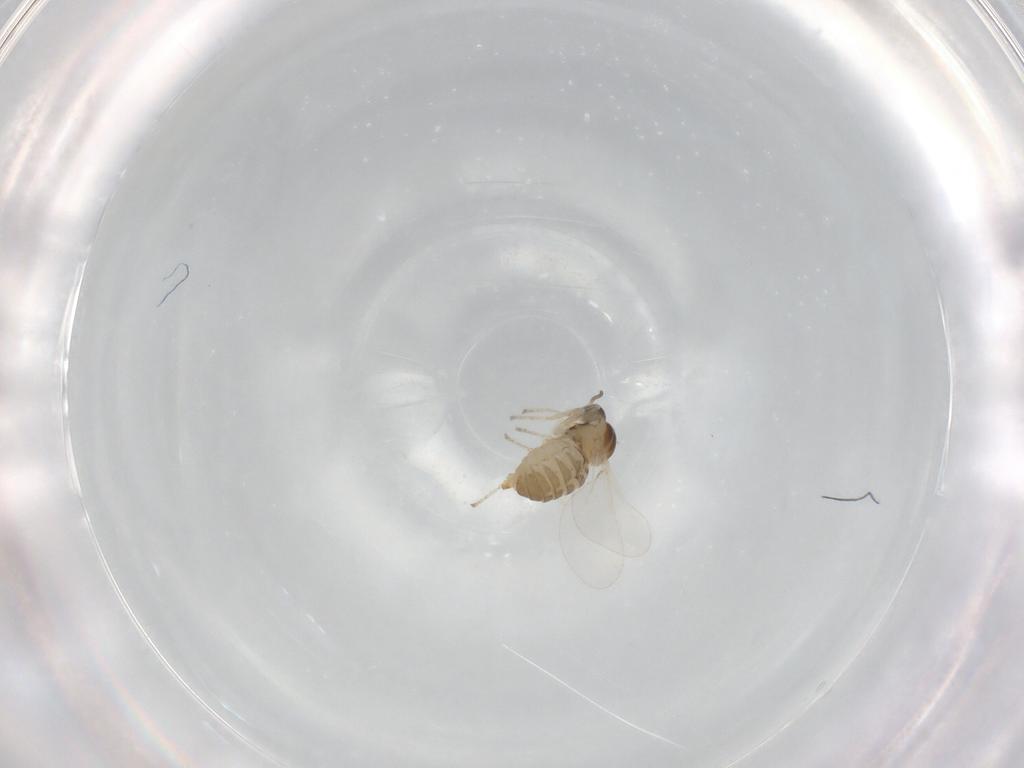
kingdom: Animalia
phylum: Arthropoda
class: Insecta
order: Diptera
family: Cecidomyiidae
